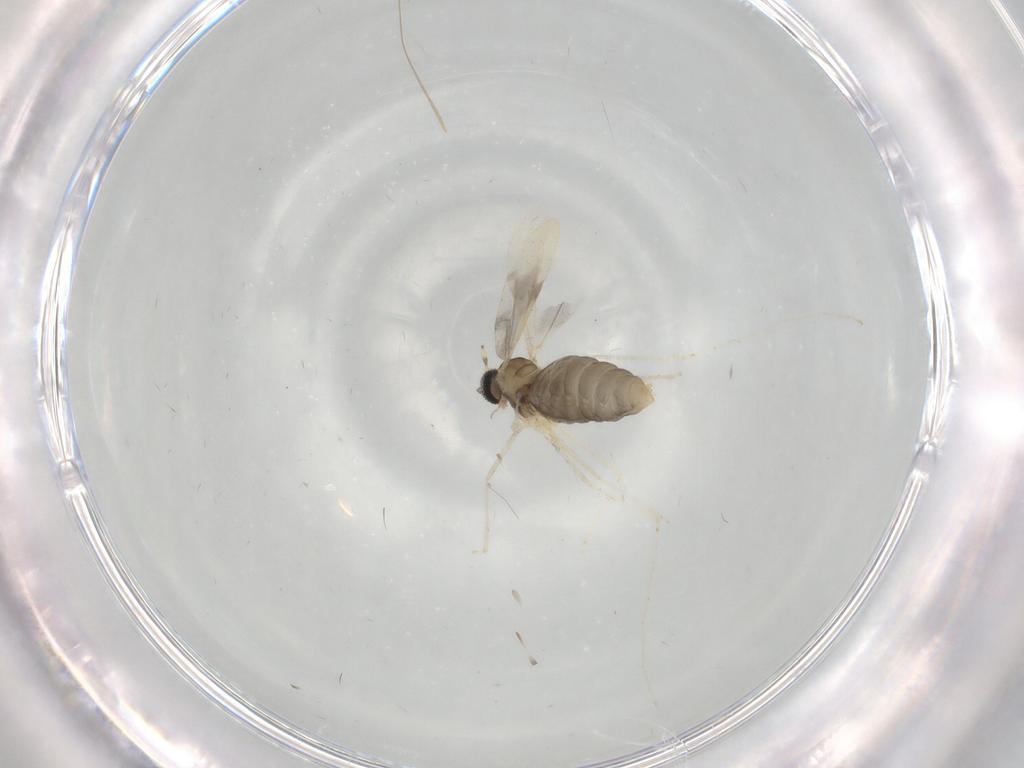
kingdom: Animalia
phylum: Arthropoda
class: Insecta
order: Diptera
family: Cecidomyiidae
